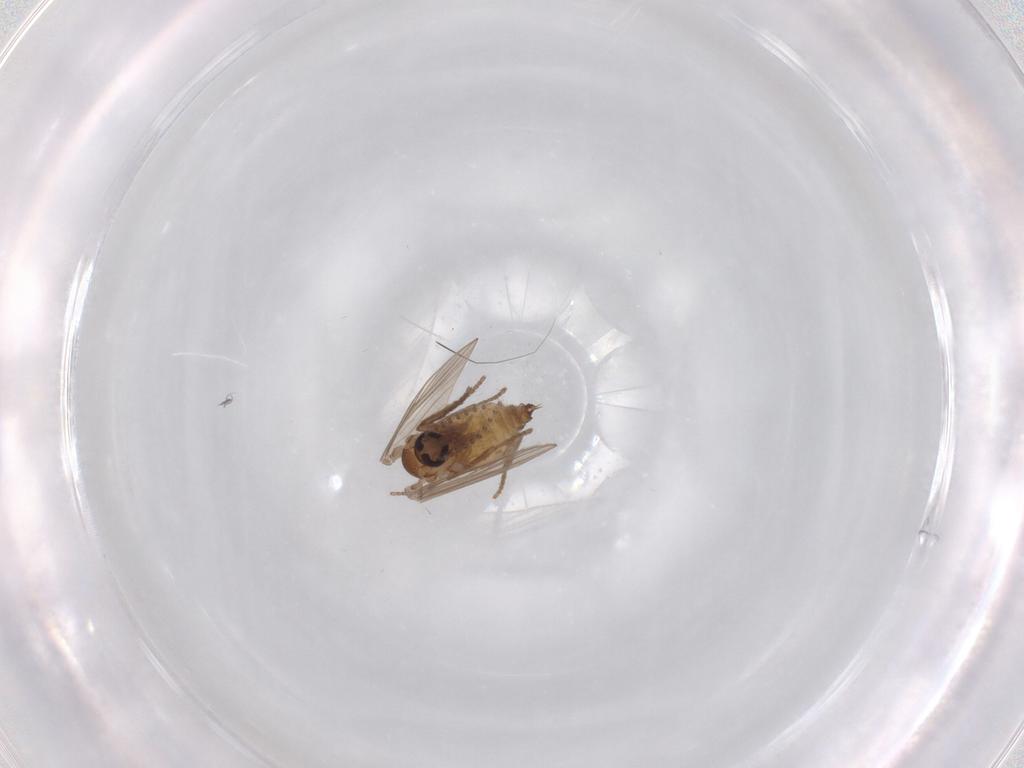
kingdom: Animalia
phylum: Arthropoda
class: Insecta
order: Diptera
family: Psychodidae
